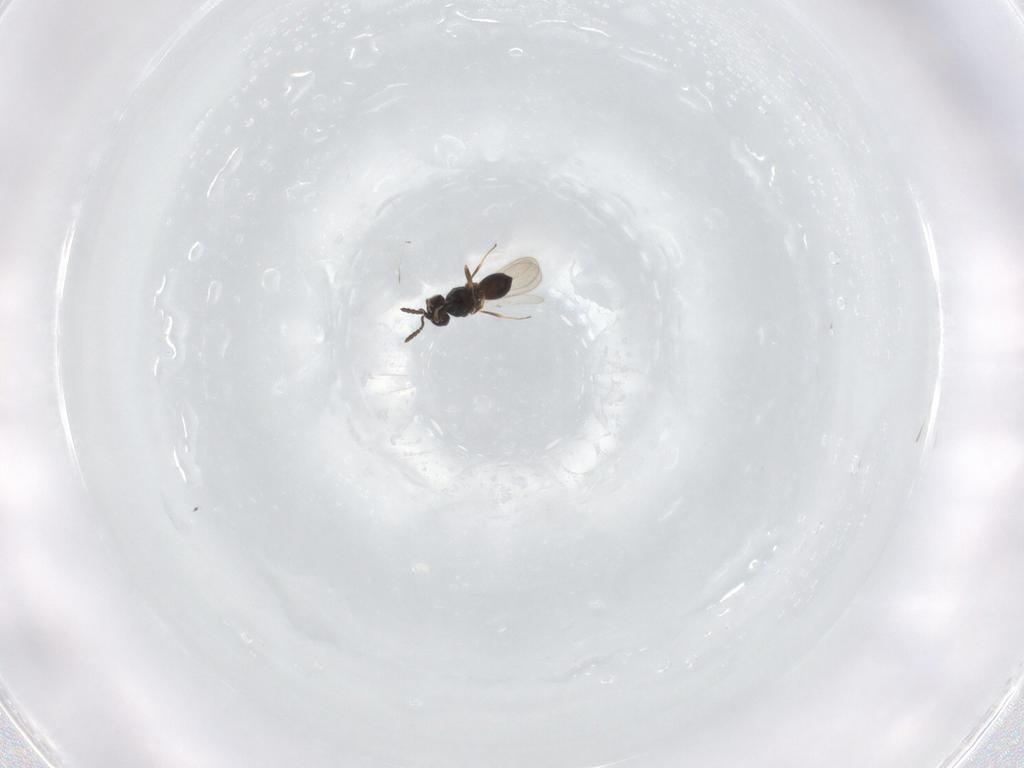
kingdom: Animalia
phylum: Arthropoda
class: Insecta
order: Hymenoptera
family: Scelionidae
